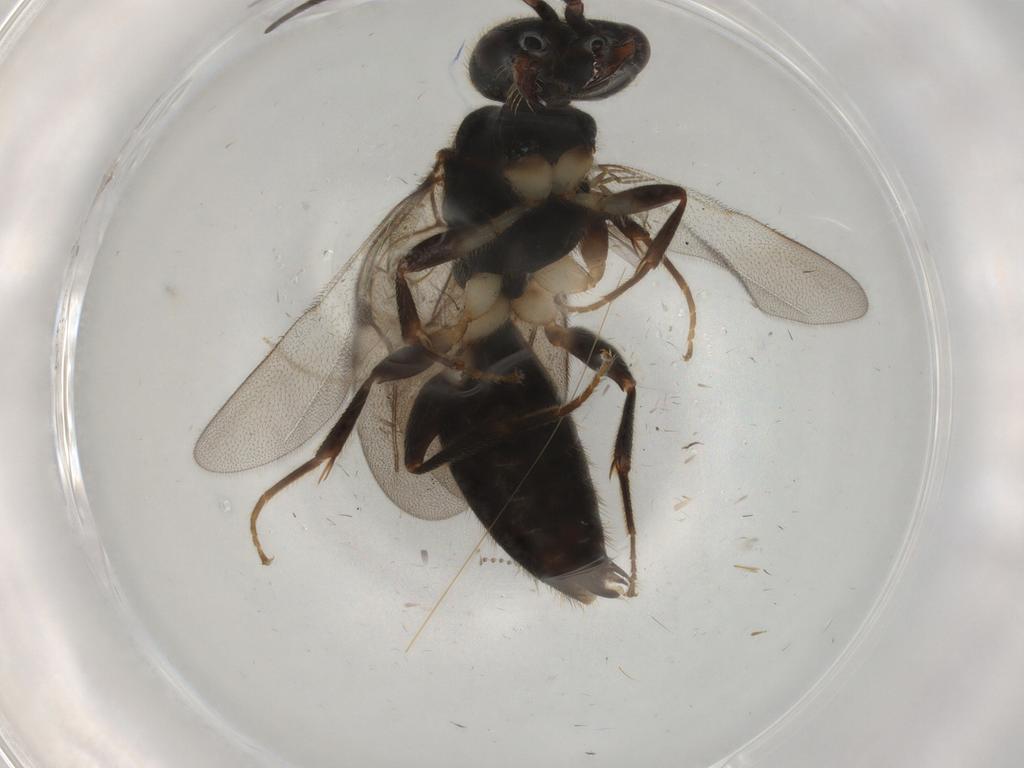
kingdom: Animalia
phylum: Arthropoda
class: Insecta
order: Hymenoptera
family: Bethylidae
